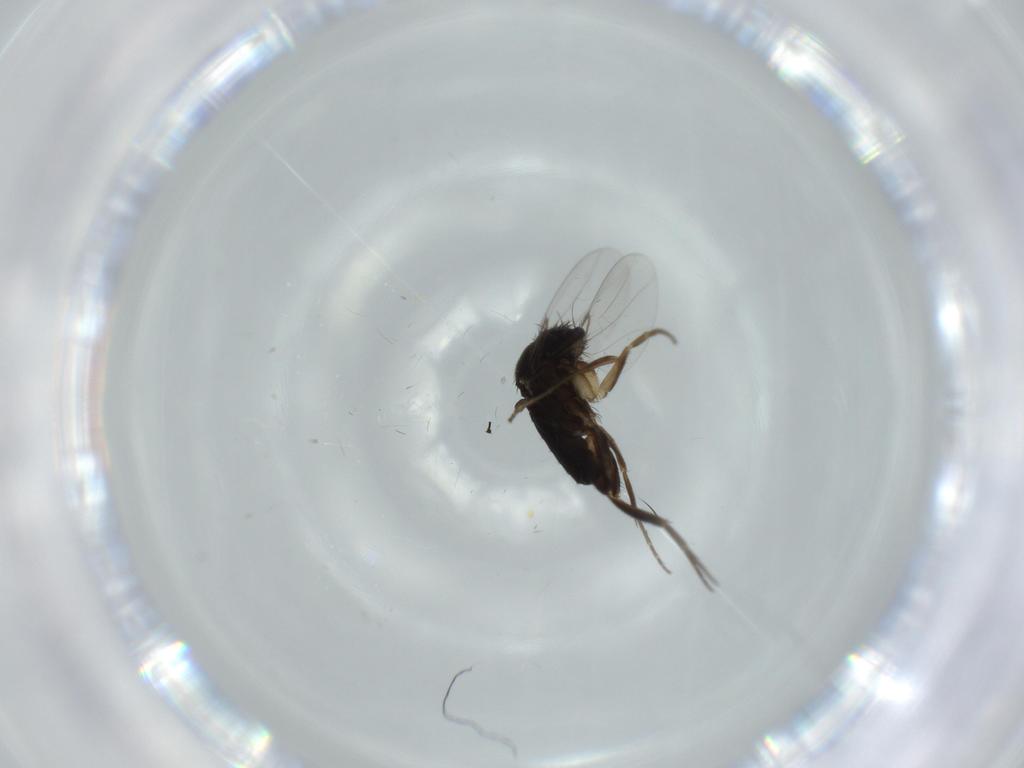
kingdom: Animalia
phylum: Arthropoda
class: Insecta
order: Diptera
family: Phoridae
